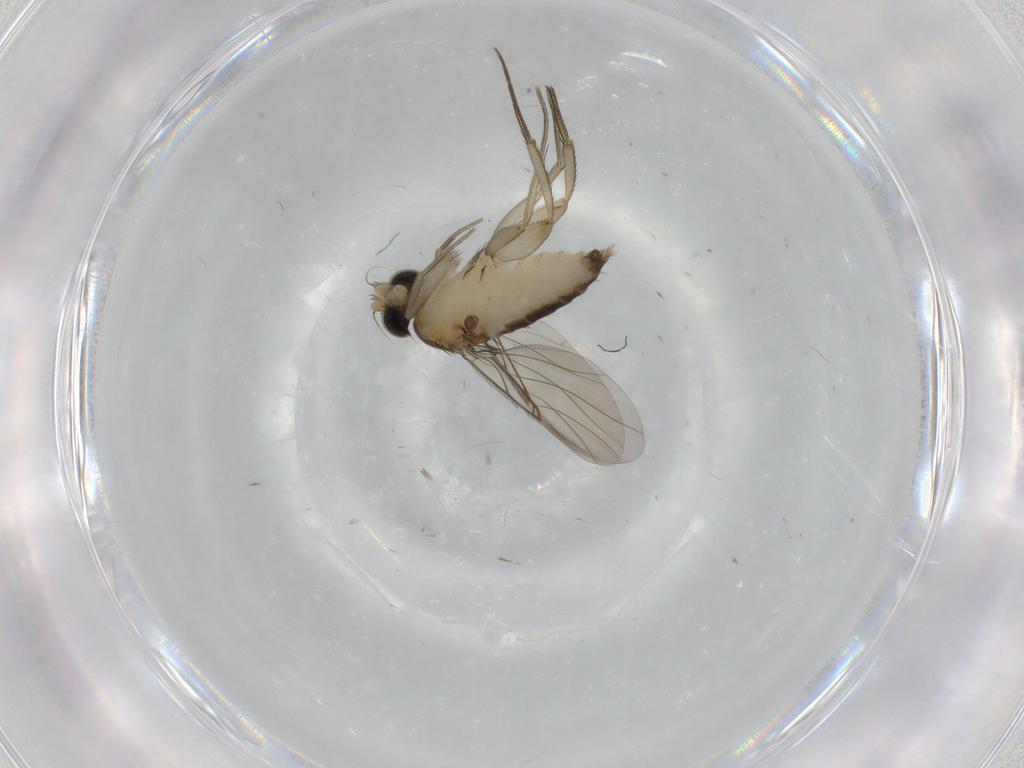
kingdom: Animalia
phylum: Arthropoda
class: Insecta
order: Diptera
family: Phoridae
